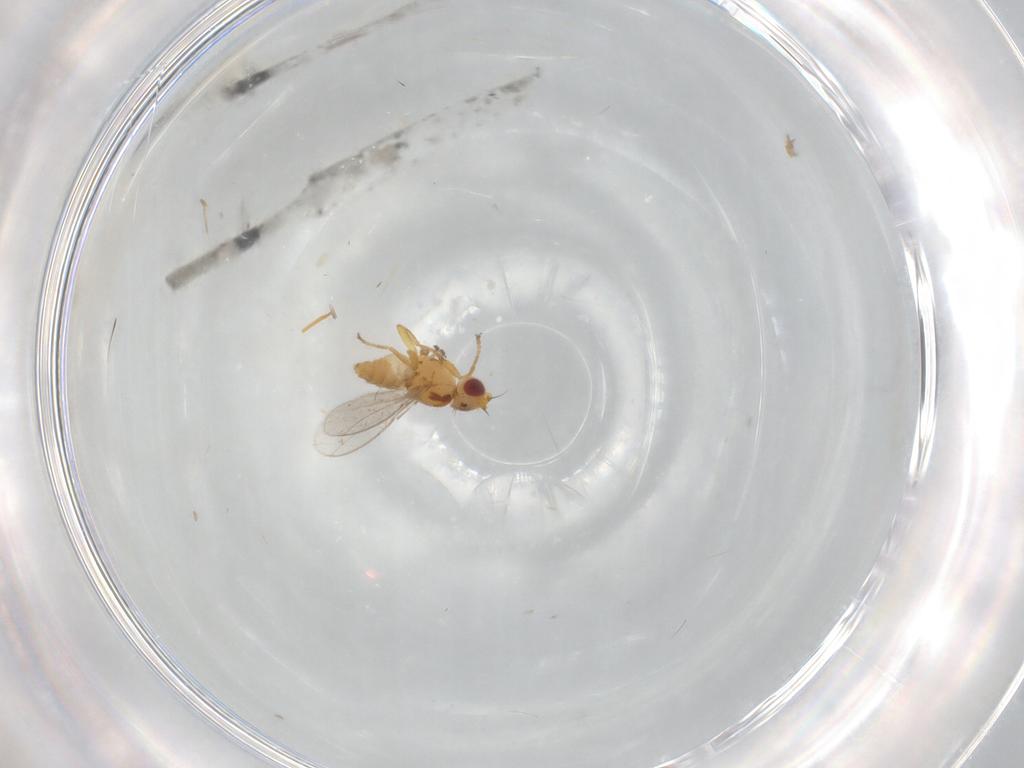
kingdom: Animalia
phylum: Arthropoda
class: Insecta
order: Diptera
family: Chloropidae
